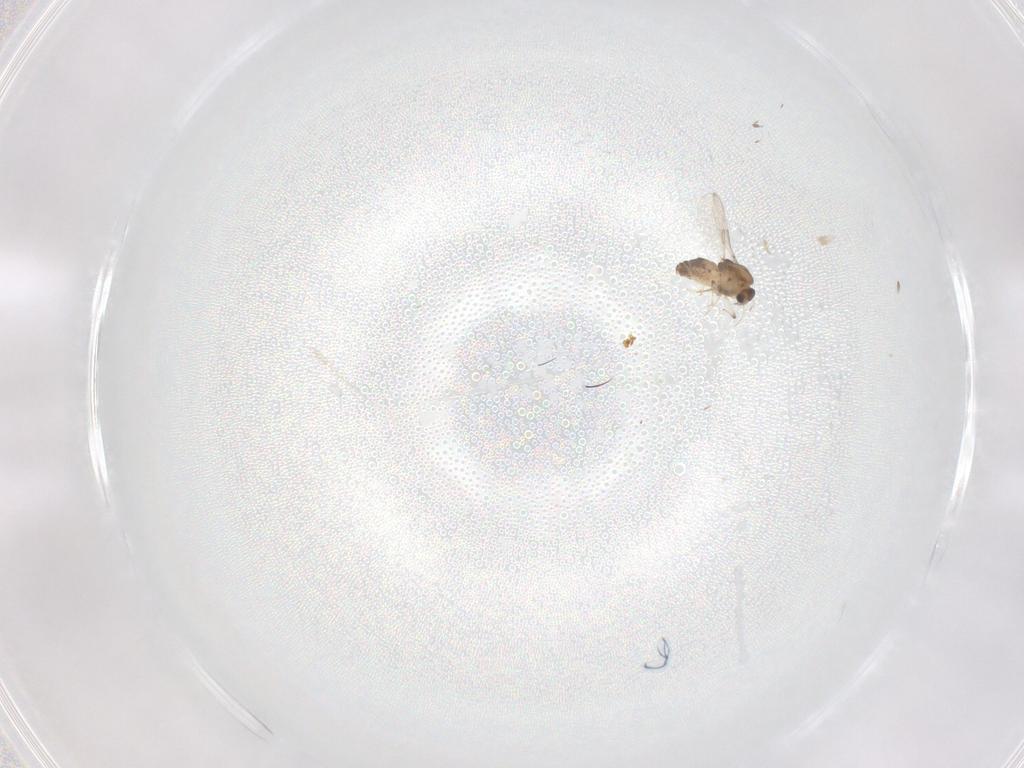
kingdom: Animalia
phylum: Arthropoda
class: Insecta
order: Diptera
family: Chironomidae
